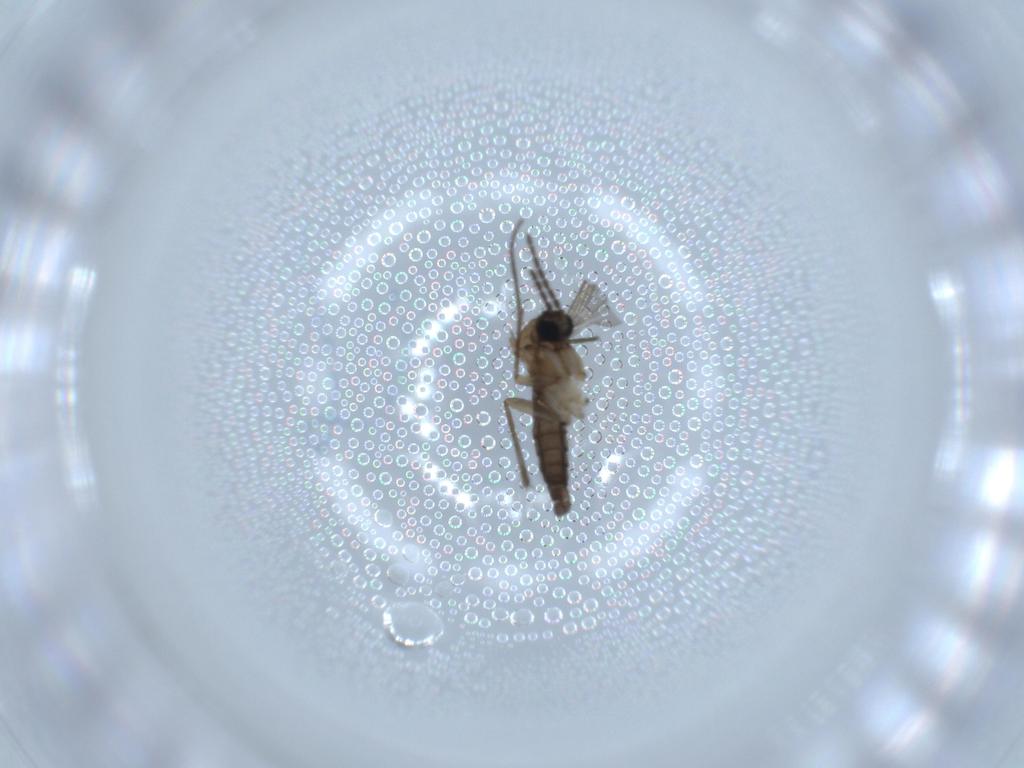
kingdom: Animalia
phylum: Arthropoda
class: Insecta
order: Diptera
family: Sciaridae
